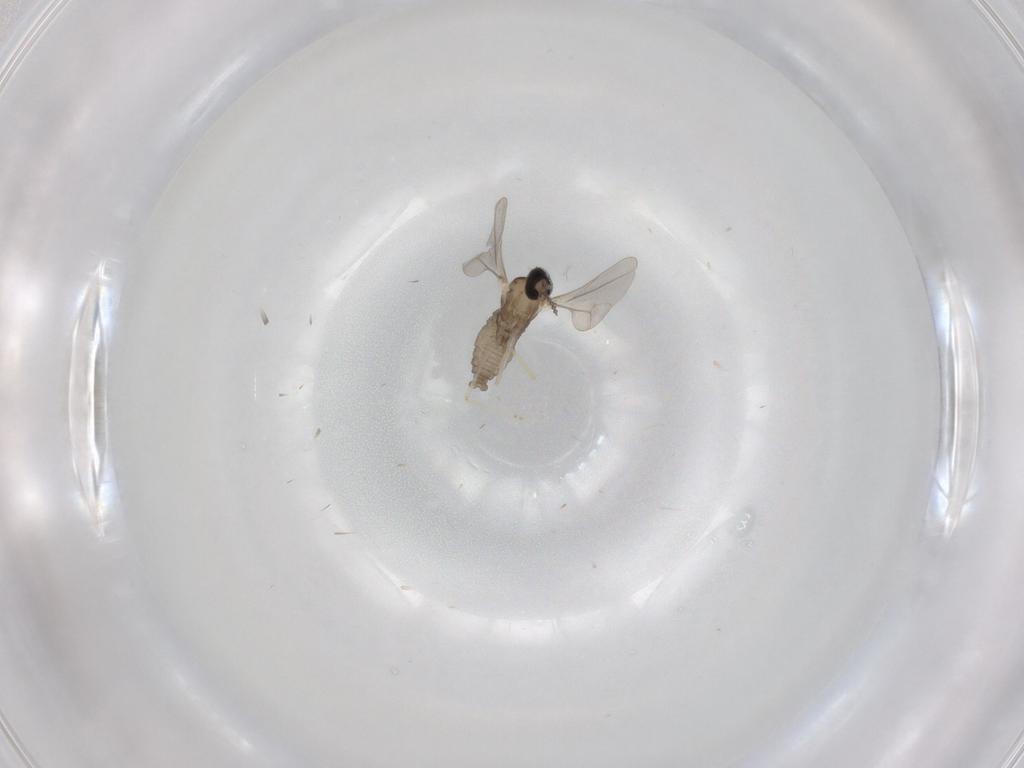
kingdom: Animalia
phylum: Arthropoda
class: Insecta
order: Diptera
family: Cecidomyiidae
